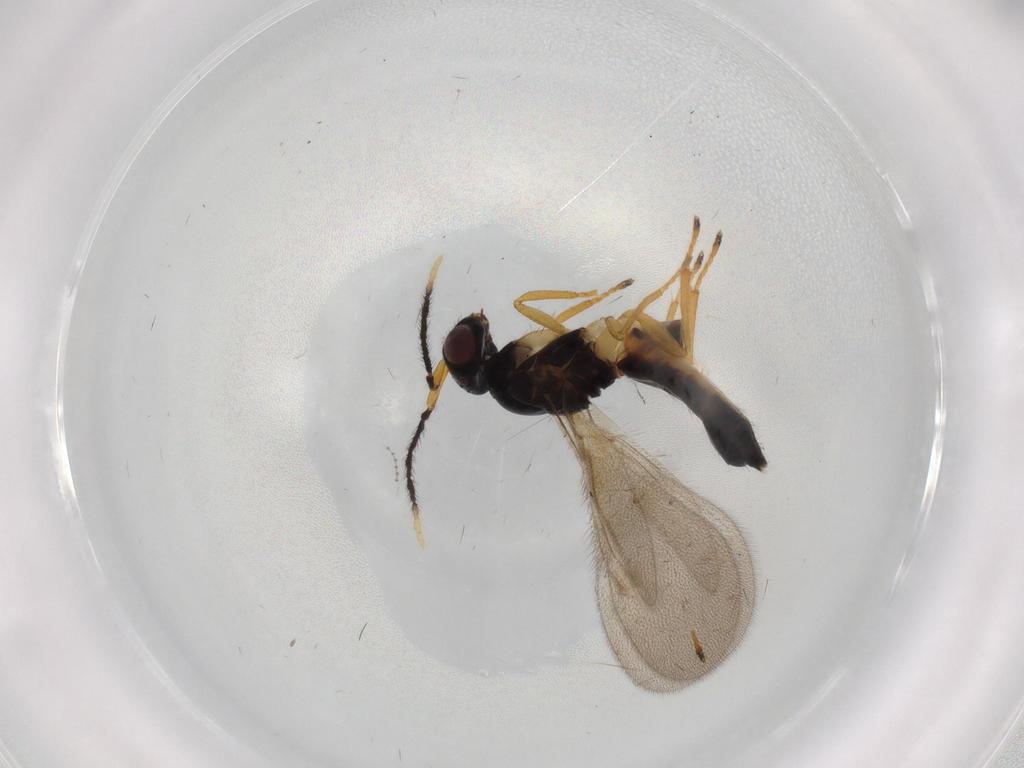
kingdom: Animalia
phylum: Arthropoda
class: Insecta
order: Hymenoptera
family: Eulophidae
